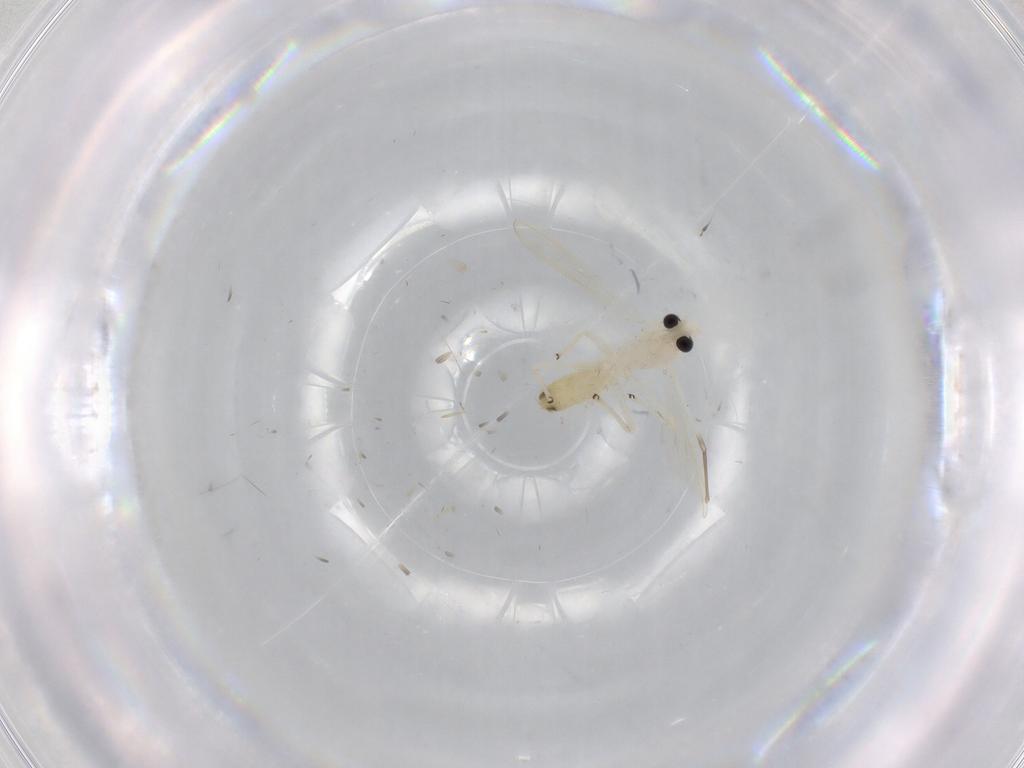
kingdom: Animalia
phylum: Arthropoda
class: Insecta
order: Diptera
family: Chironomidae
